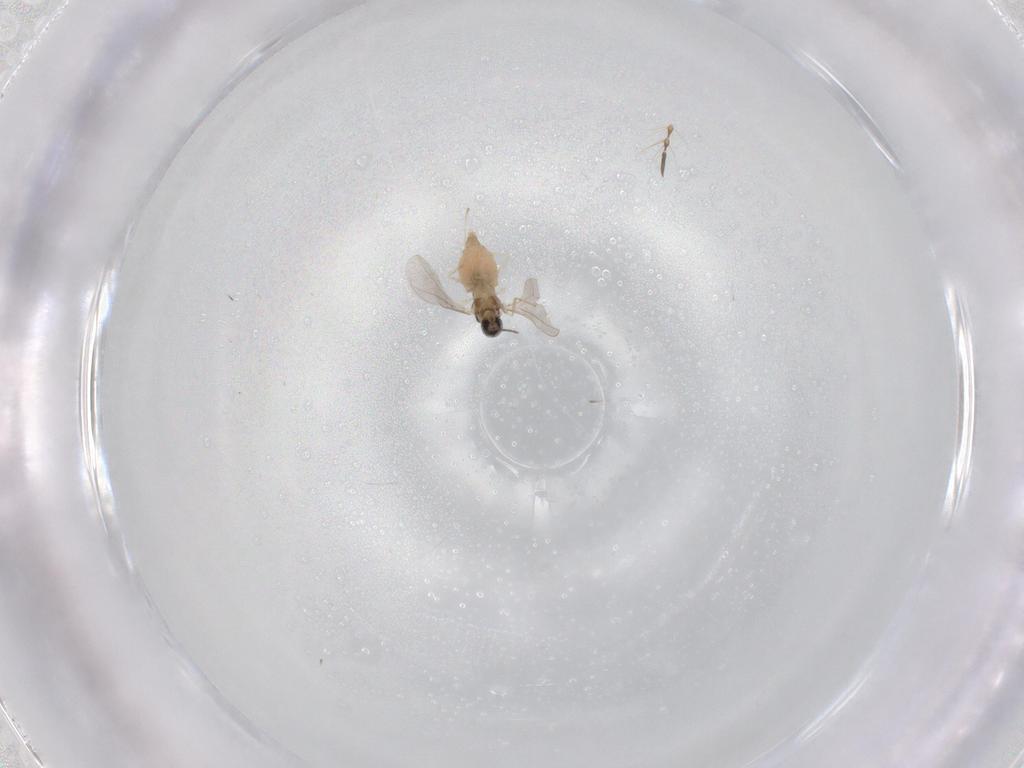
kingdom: Animalia
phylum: Arthropoda
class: Insecta
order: Diptera
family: Cecidomyiidae
